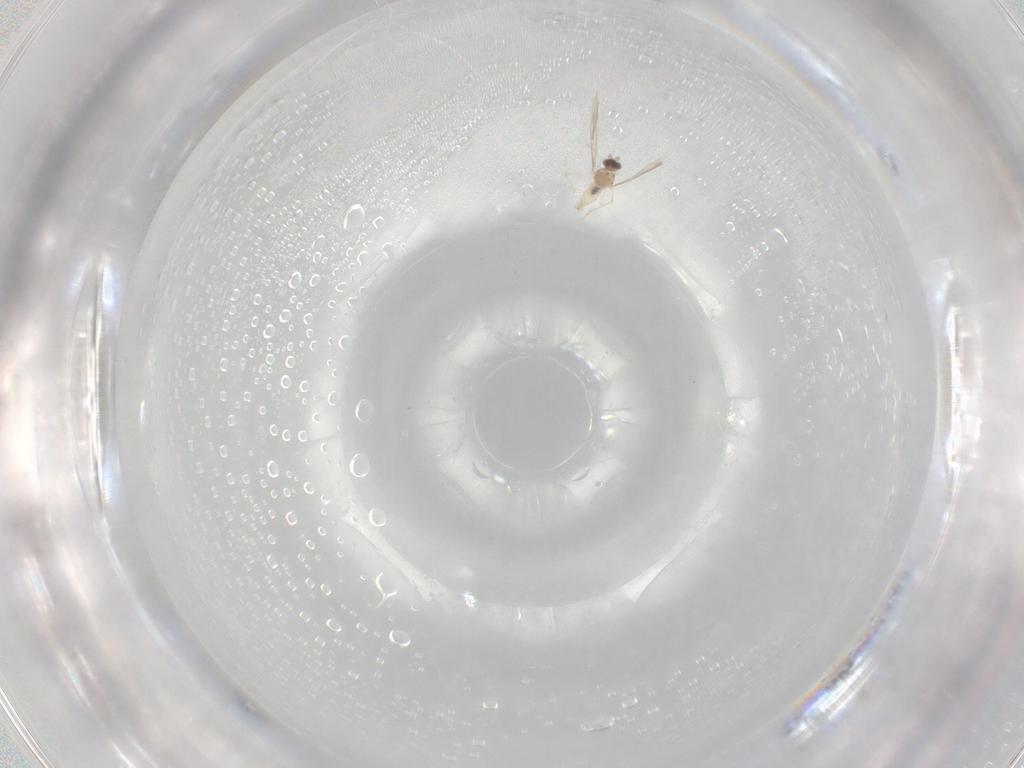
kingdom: Animalia
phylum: Arthropoda
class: Insecta
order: Diptera
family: Cecidomyiidae
